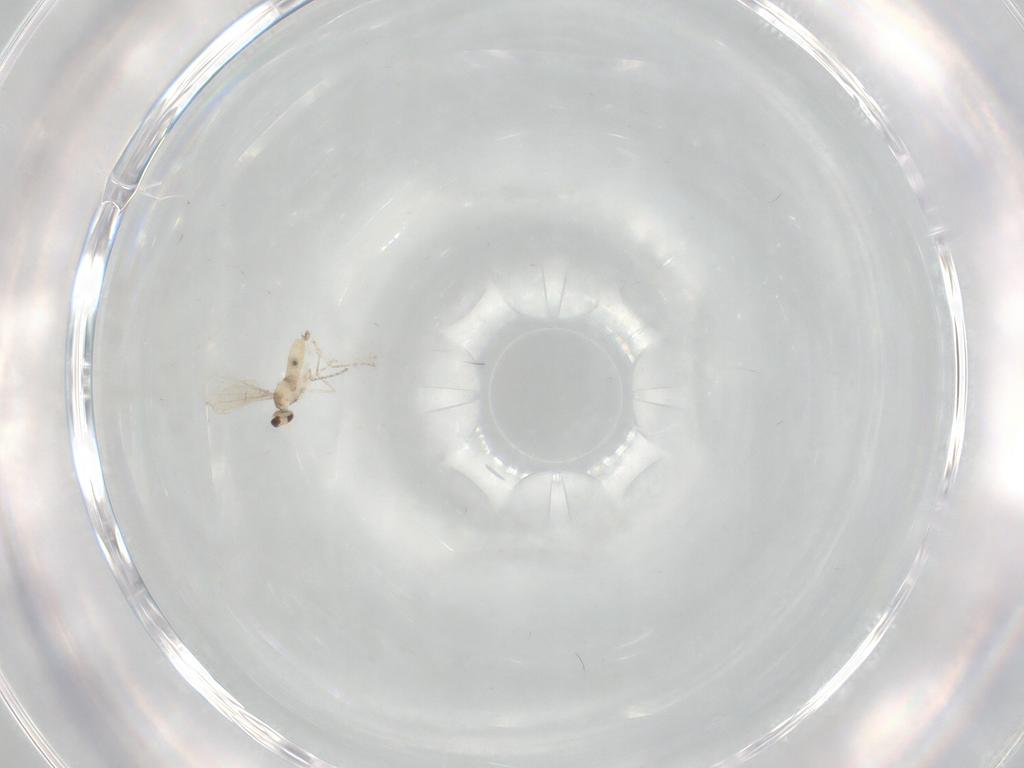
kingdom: Animalia
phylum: Arthropoda
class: Insecta
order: Diptera
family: Cecidomyiidae
